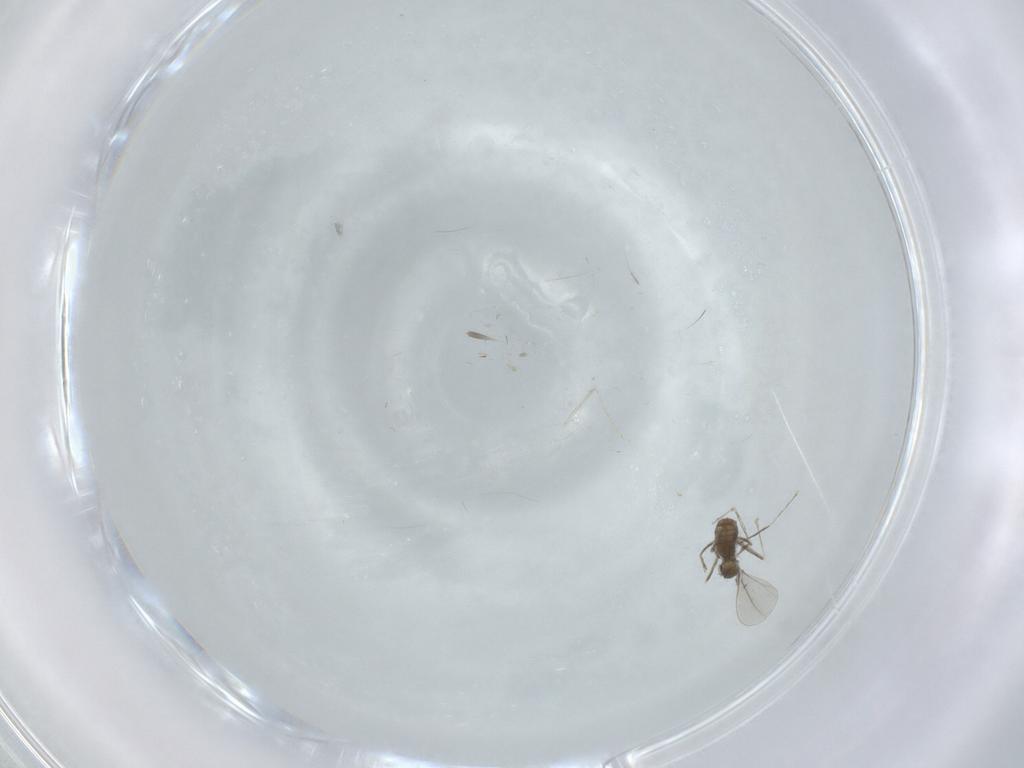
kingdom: Animalia
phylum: Arthropoda
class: Insecta
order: Diptera
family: Cecidomyiidae
